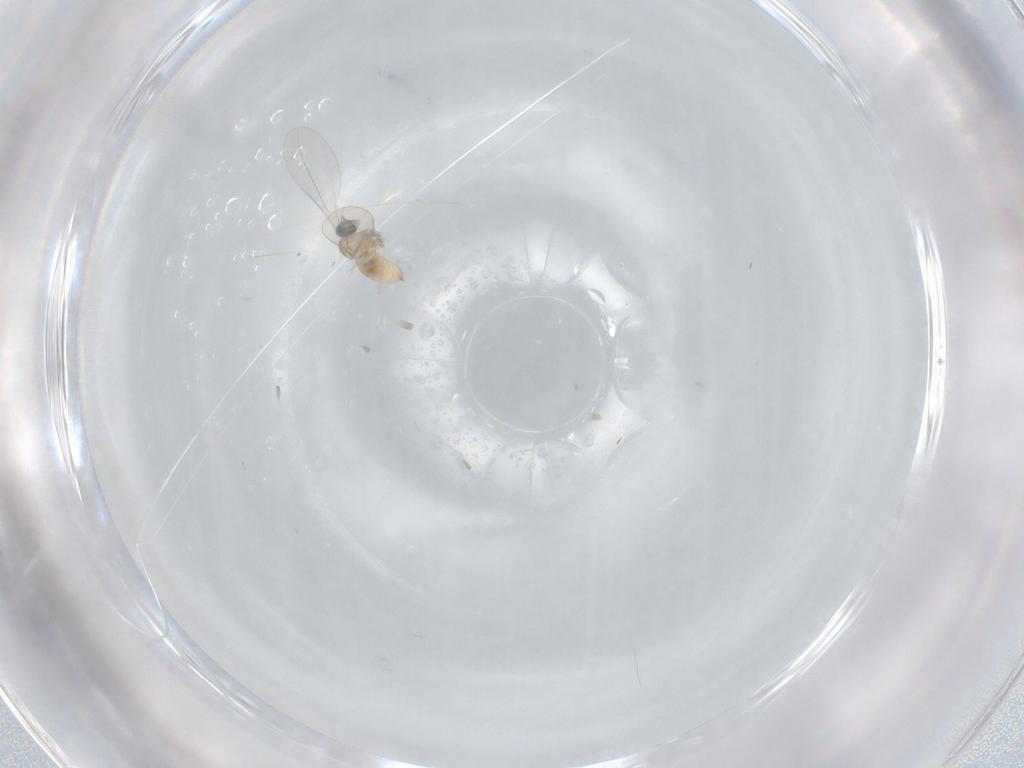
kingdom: Animalia
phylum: Arthropoda
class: Insecta
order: Diptera
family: Cecidomyiidae
